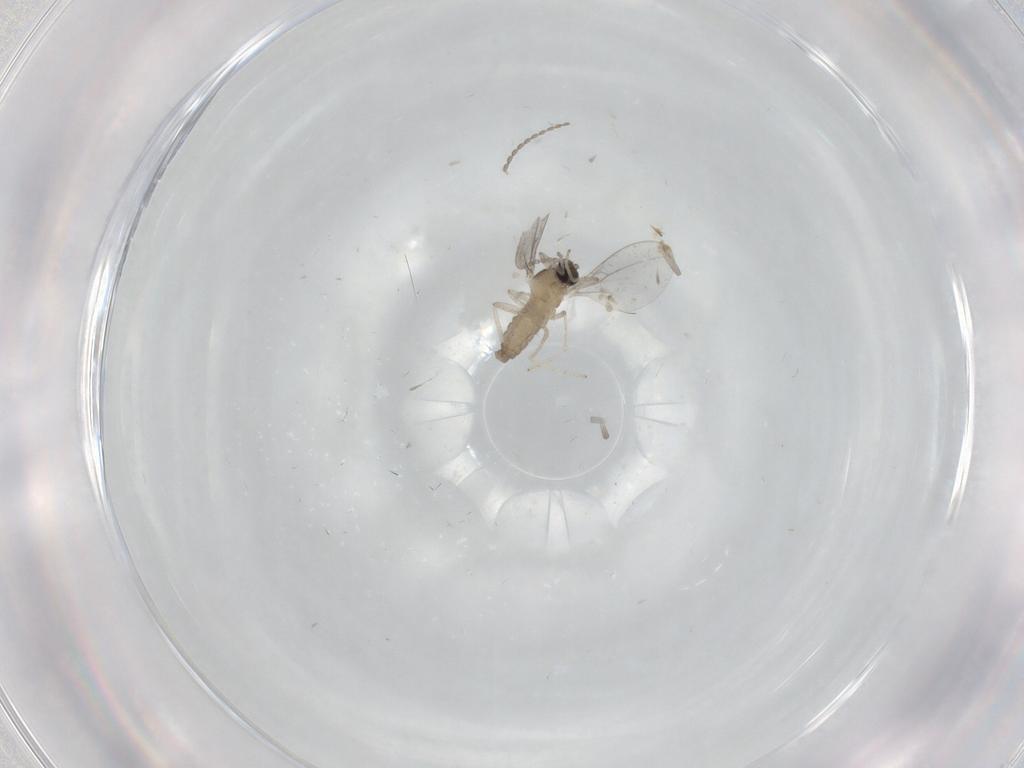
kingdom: Animalia
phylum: Arthropoda
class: Insecta
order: Diptera
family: Cecidomyiidae
